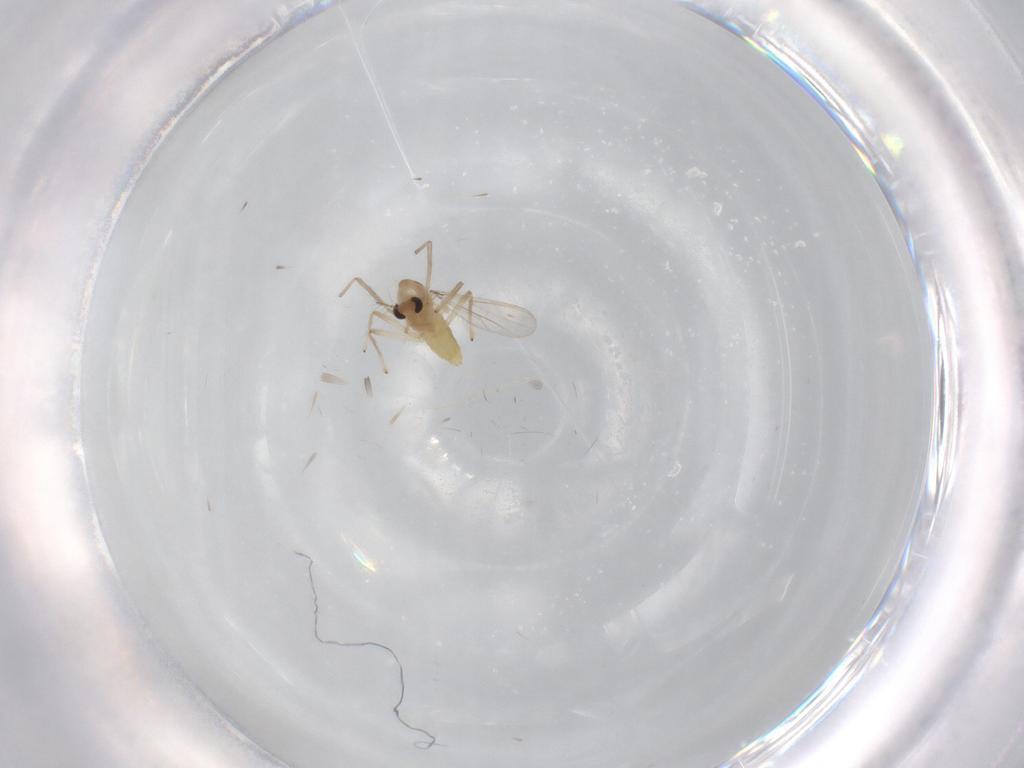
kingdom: Animalia
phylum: Arthropoda
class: Insecta
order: Diptera
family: Chironomidae
